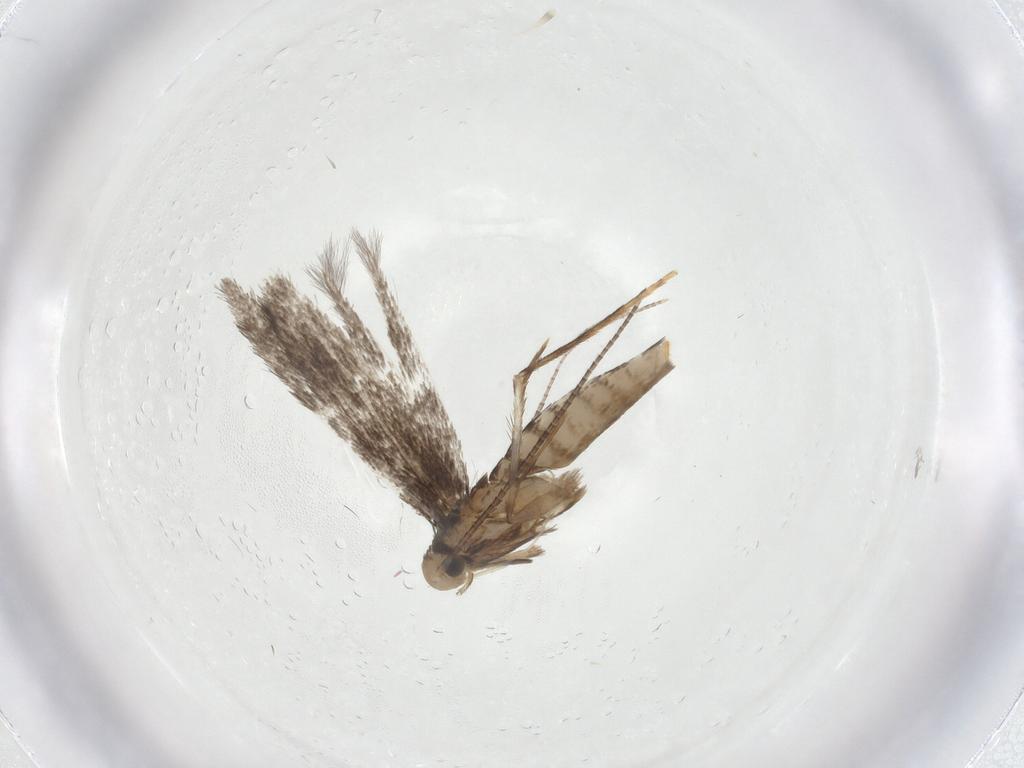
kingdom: Animalia
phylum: Arthropoda
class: Insecta
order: Lepidoptera
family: Gracillariidae
